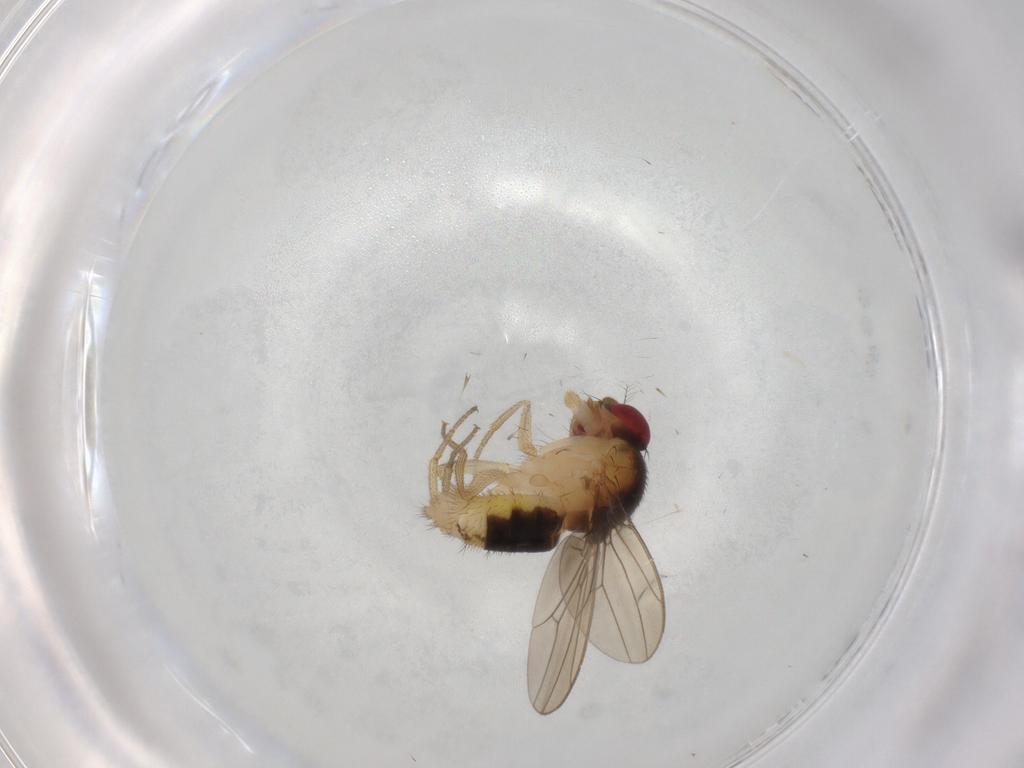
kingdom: Animalia
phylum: Arthropoda
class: Insecta
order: Diptera
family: Drosophilidae
